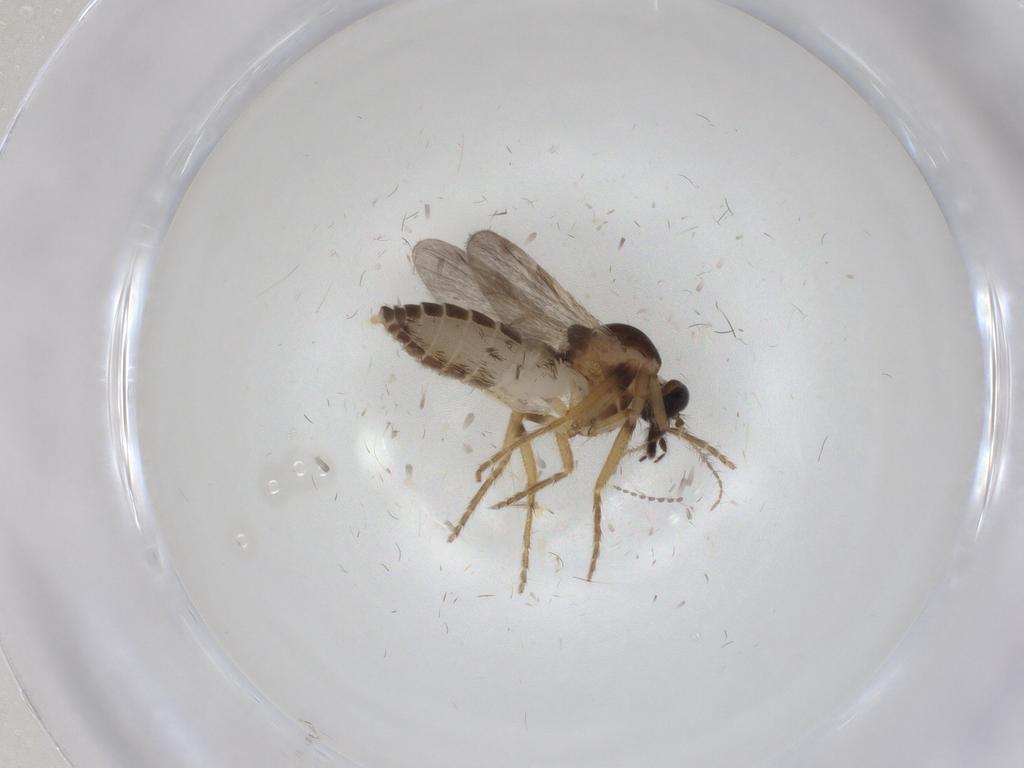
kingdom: Animalia
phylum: Arthropoda
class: Insecta
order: Diptera
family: Ceratopogonidae
